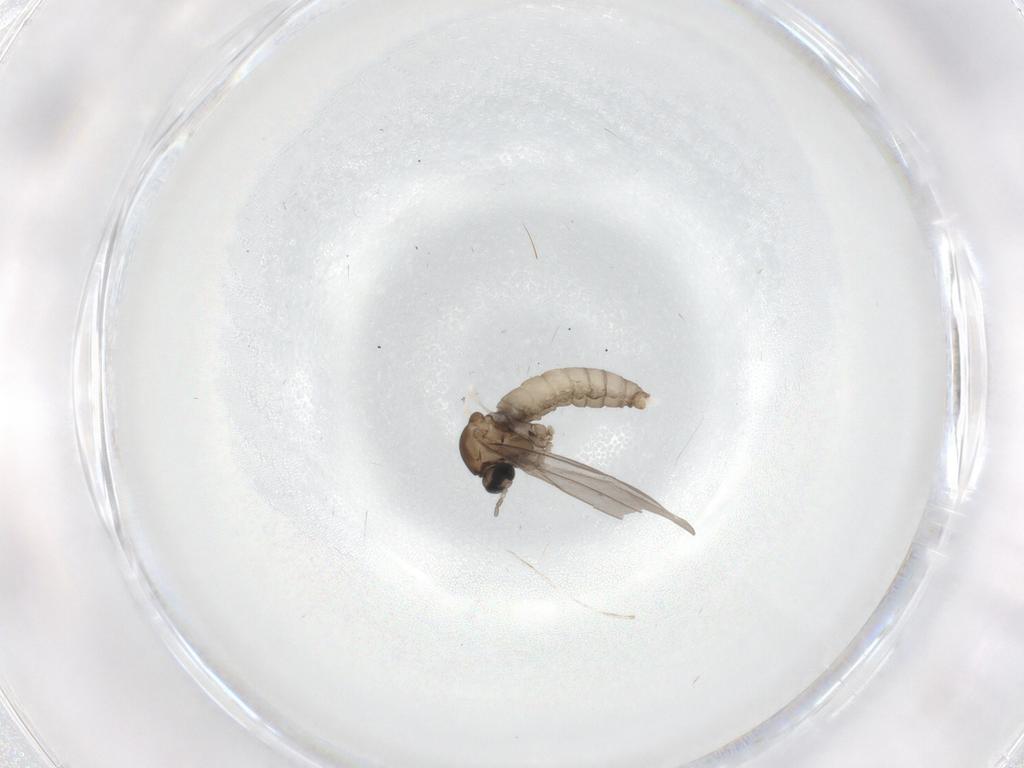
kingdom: Animalia
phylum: Arthropoda
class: Insecta
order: Diptera
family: Cecidomyiidae
